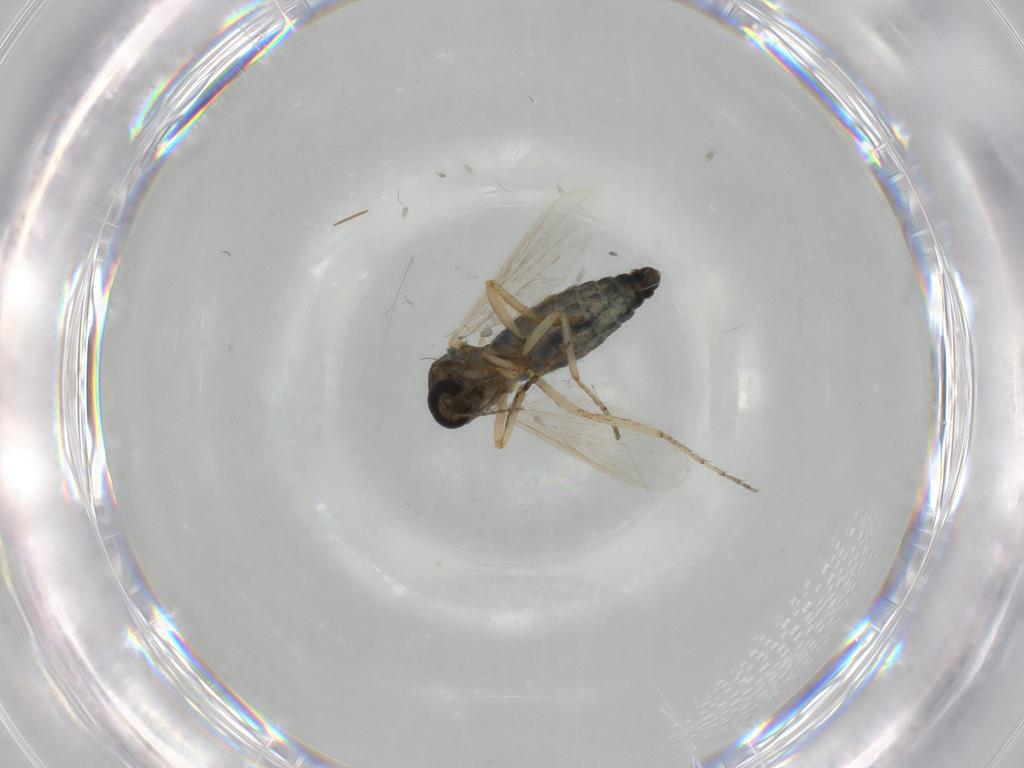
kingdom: Animalia
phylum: Arthropoda
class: Insecta
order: Diptera
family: Ceratopogonidae
